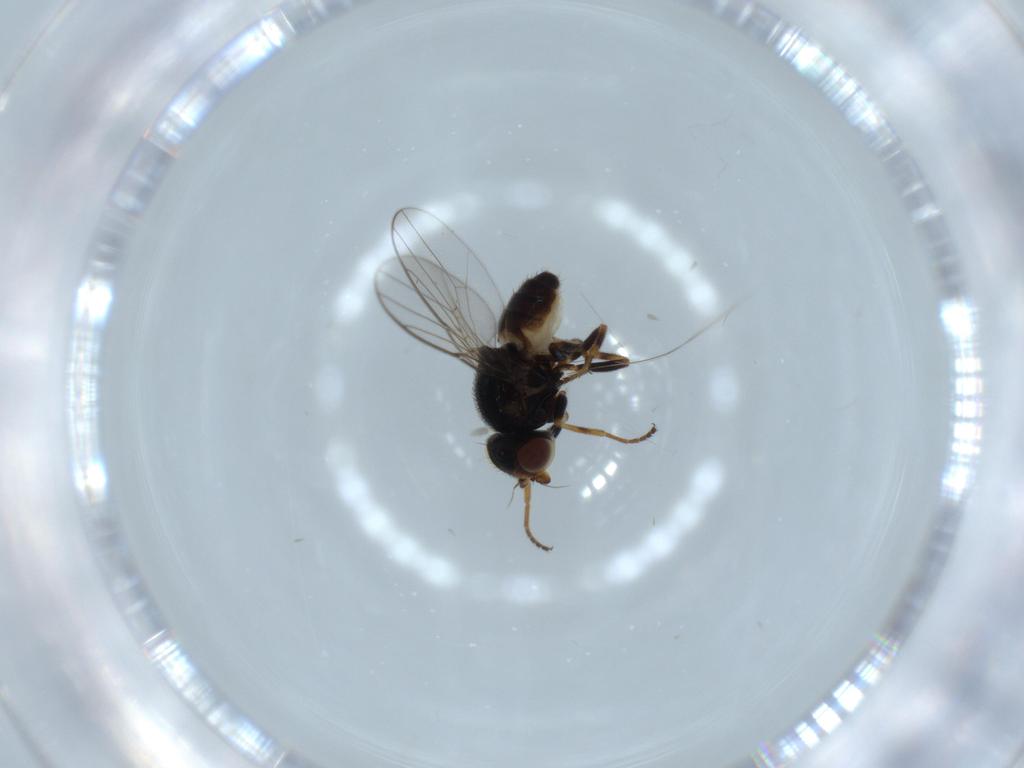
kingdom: Animalia
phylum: Arthropoda
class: Insecta
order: Diptera
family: Chloropidae
